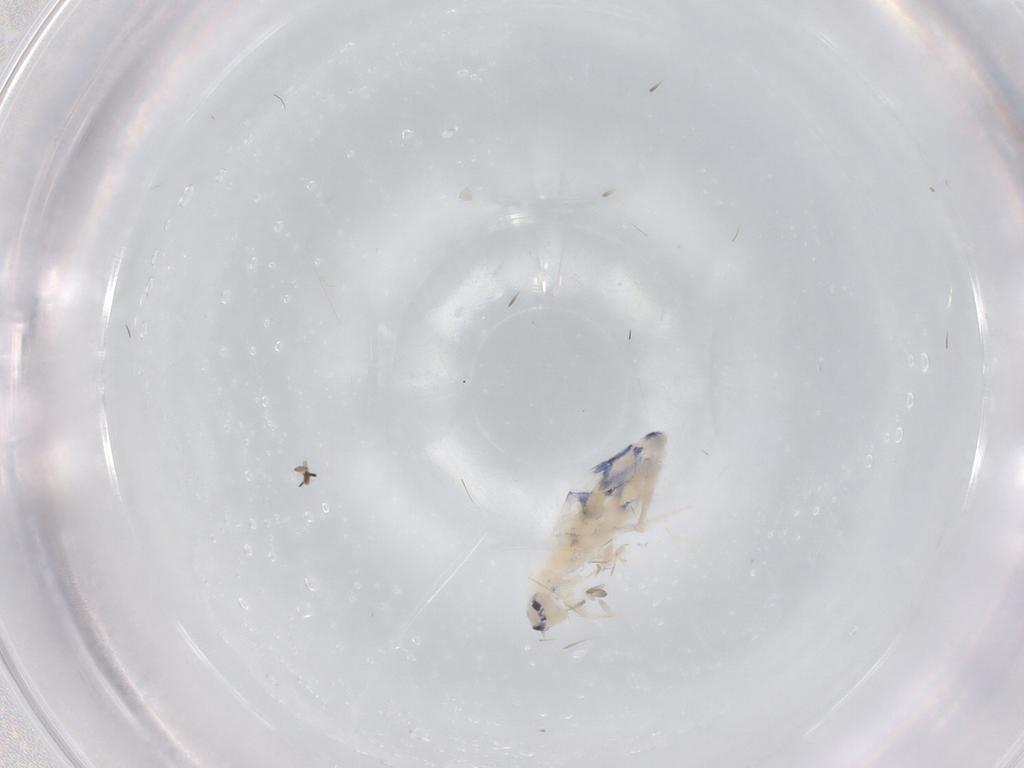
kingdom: Animalia
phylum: Arthropoda
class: Collembola
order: Entomobryomorpha
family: Entomobryidae
